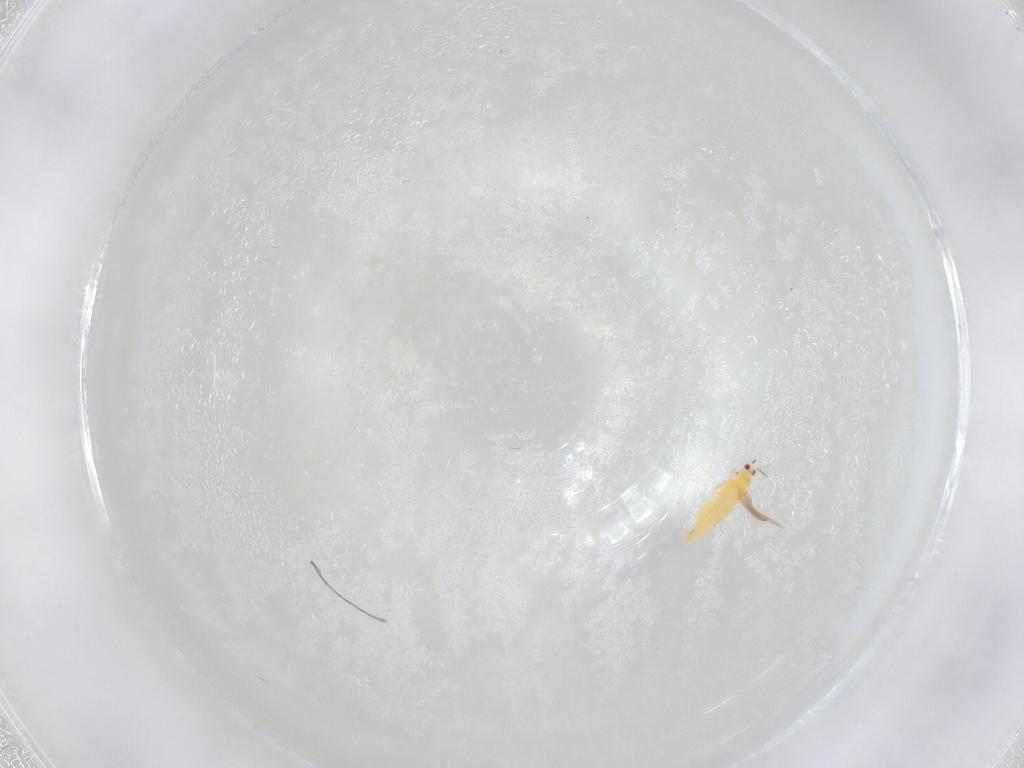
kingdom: Animalia
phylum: Arthropoda
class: Insecta
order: Thysanoptera
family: Thripidae
